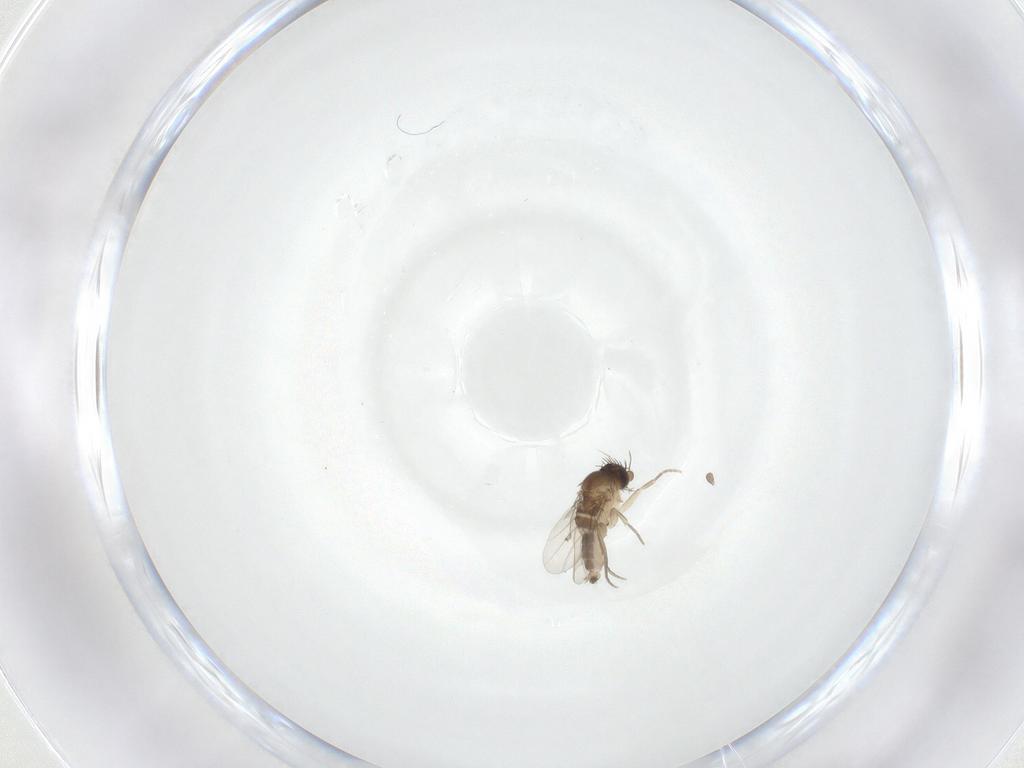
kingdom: Animalia
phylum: Arthropoda
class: Insecta
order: Diptera
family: Phoridae
